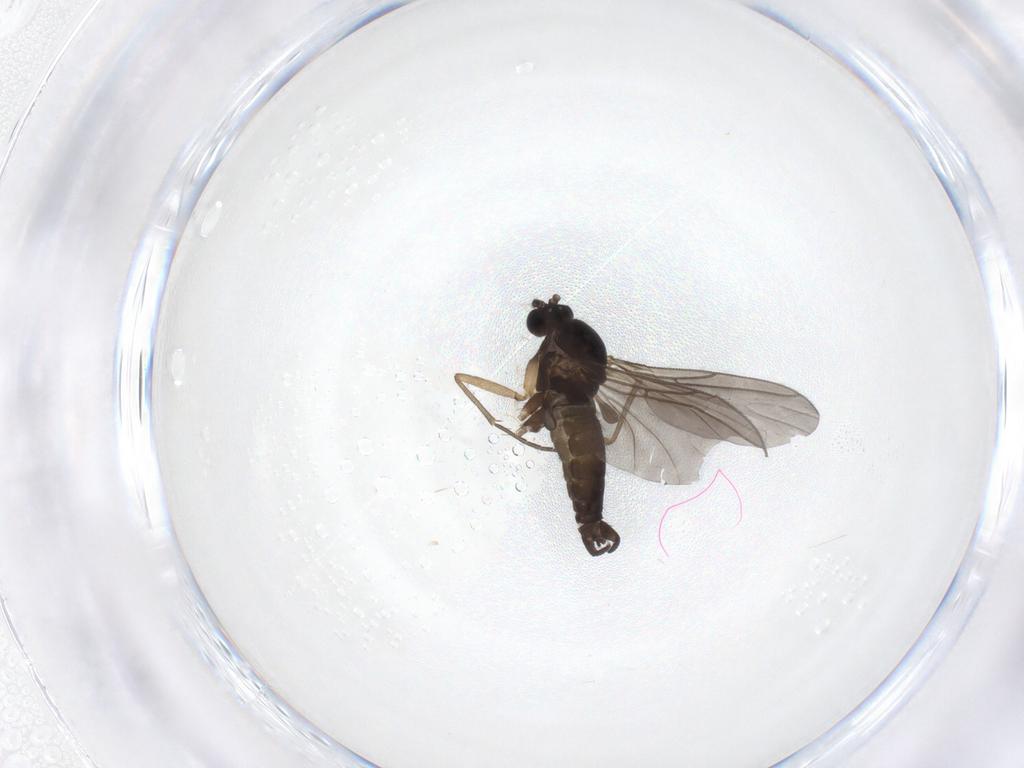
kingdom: Animalia
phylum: Arthropoda
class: Insecta
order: Diptera
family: Sciaridae
